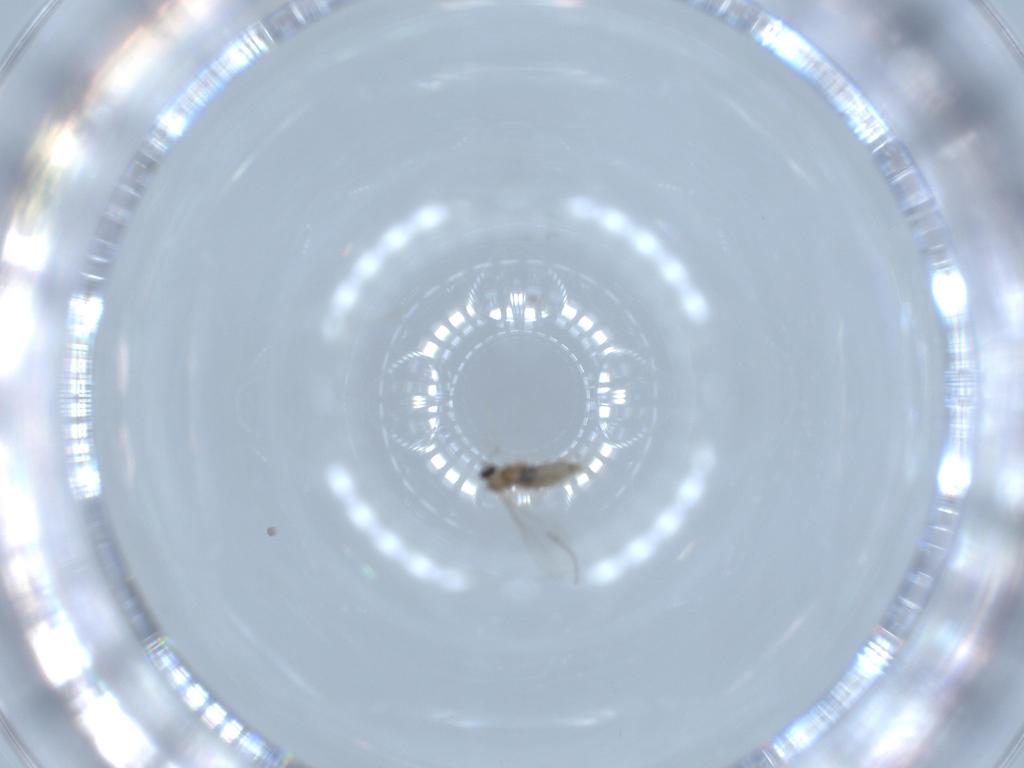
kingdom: Animalia
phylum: Arthropoda
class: Insecta
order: Diptera
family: Cecidomyiidae
